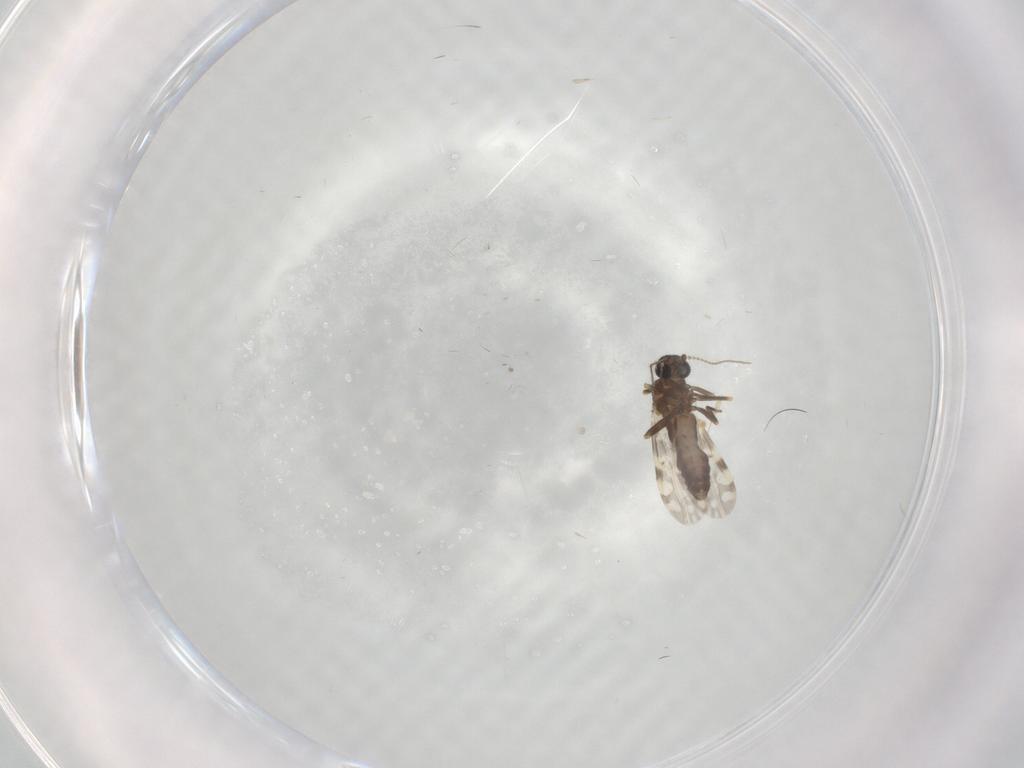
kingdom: Animalia
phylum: Arthropoda
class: Insecta
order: Diptera
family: Ceratopogonidae
